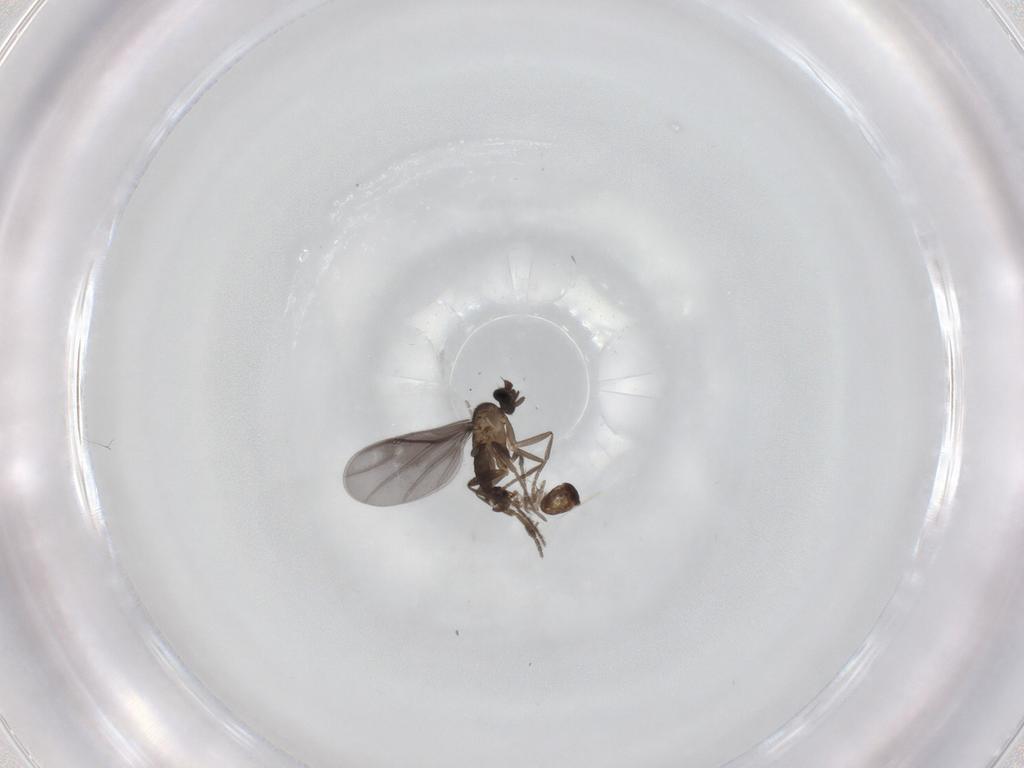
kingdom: Animalia
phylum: Arthropoda
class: Insecta
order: Diptera
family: Phoridae
